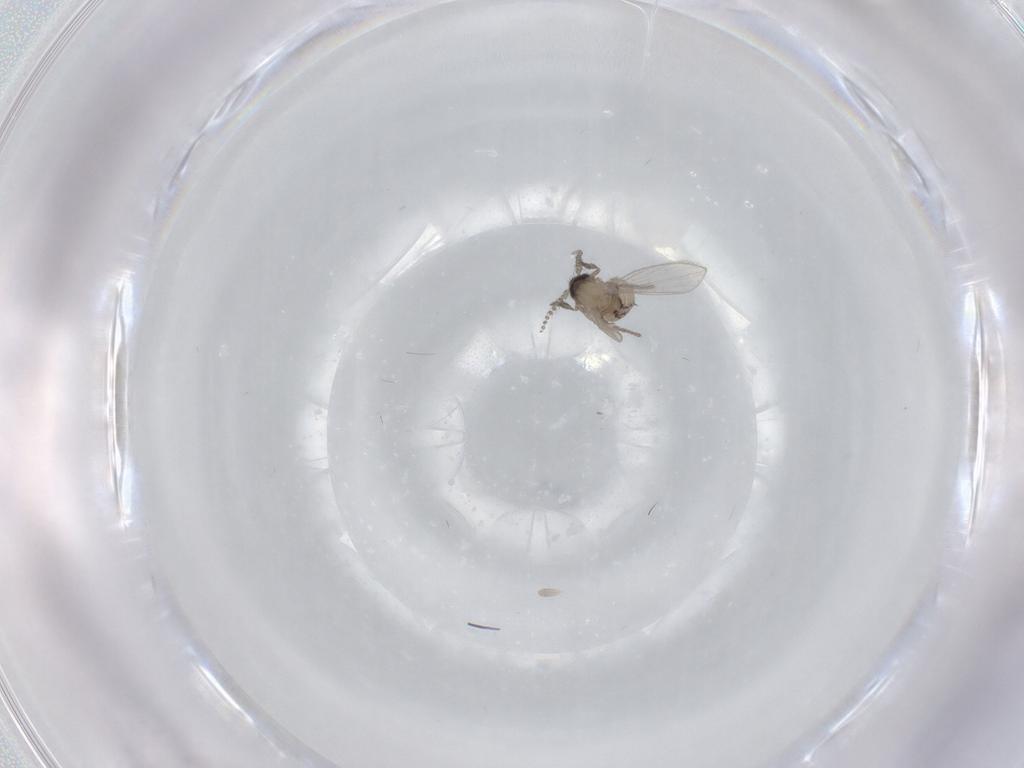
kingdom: Animalia
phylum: Arthropoda
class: Insecta
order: Diptera
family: Psychodidae
